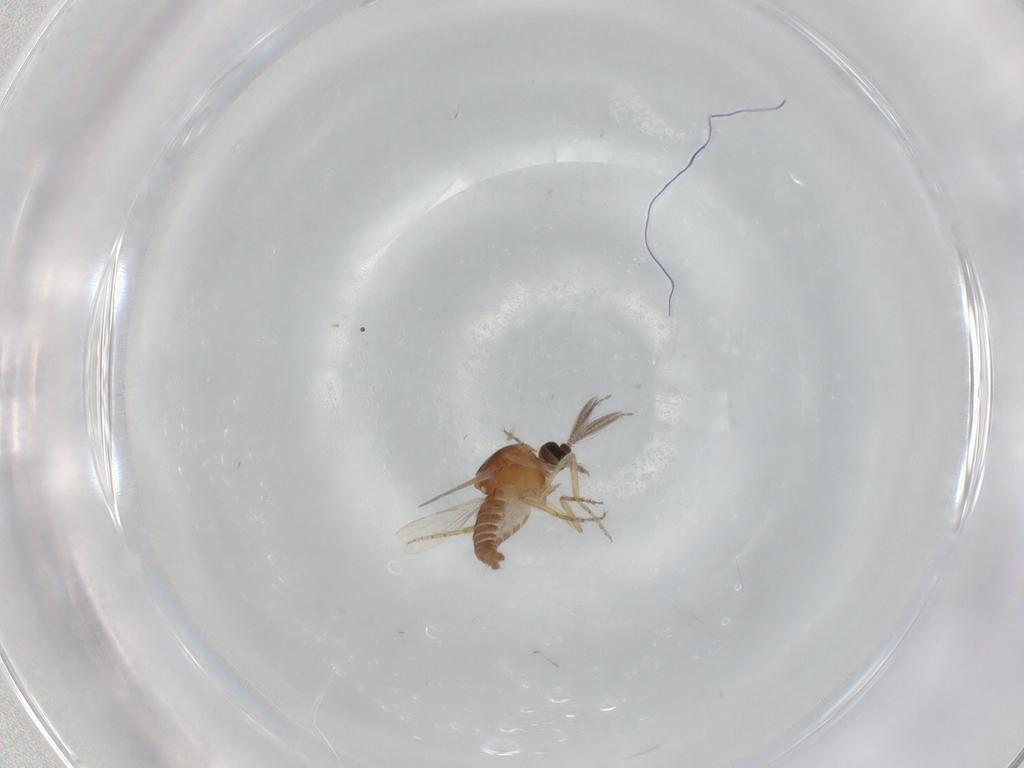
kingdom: Animalia
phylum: Arthropoda
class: Insecta
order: Diptera
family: Ceratopogonidae
